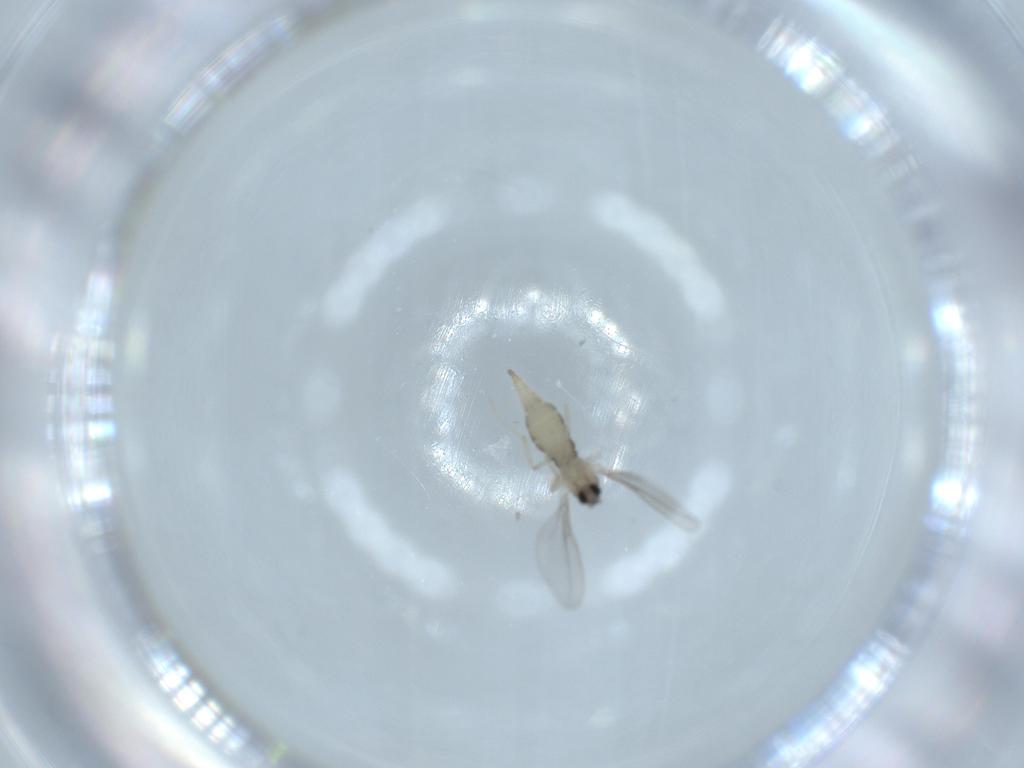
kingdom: Animalia
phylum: Arthropoda
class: Insecta
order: Diptera
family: Cecidomyiidae
